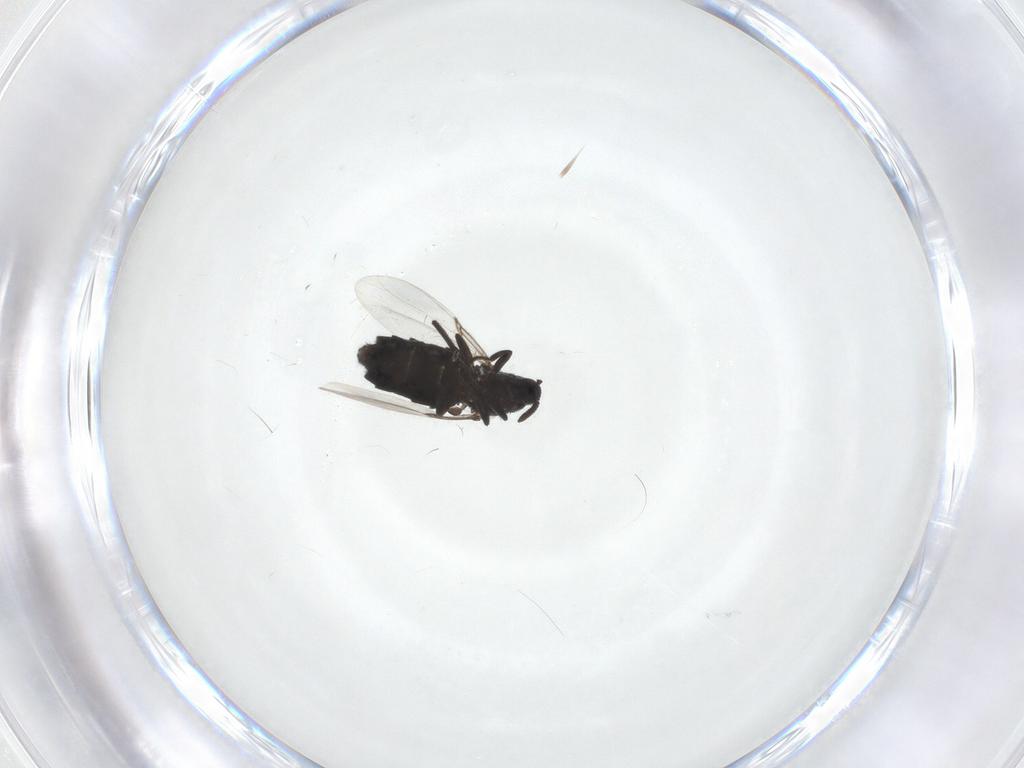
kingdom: Animalia
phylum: Arthropoda
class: Insecta
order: Diptera
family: Scatopsidae
